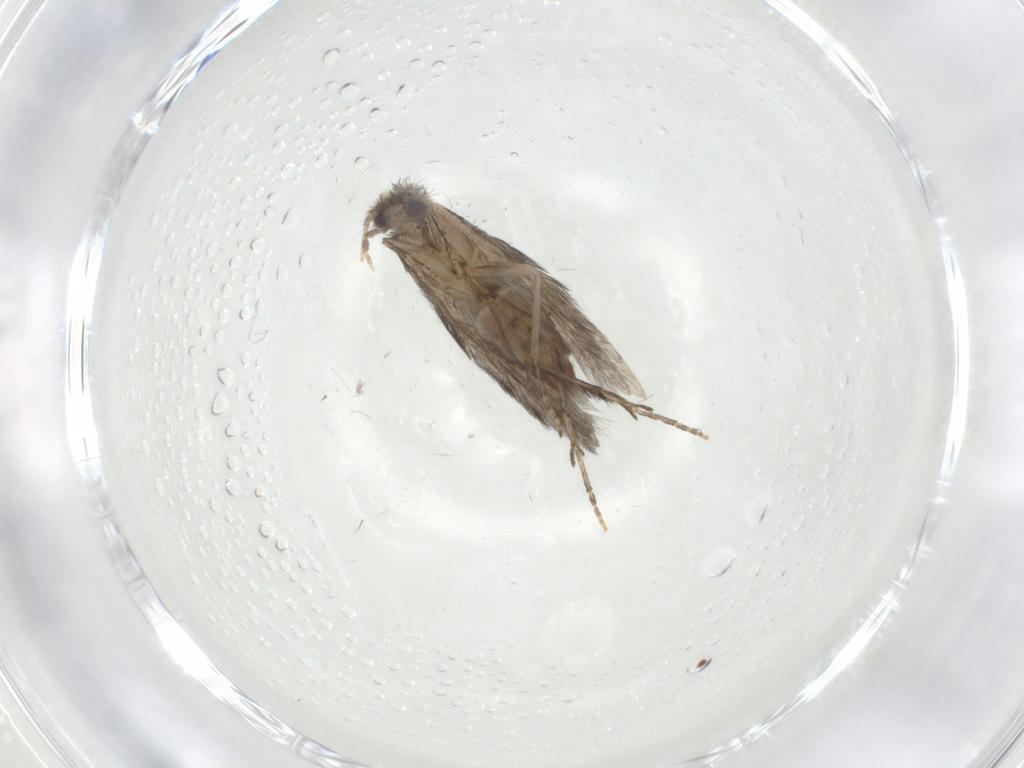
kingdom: Animalia
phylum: Arthropoda
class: Insecta
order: Trichoptera
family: Hydroptilidae
